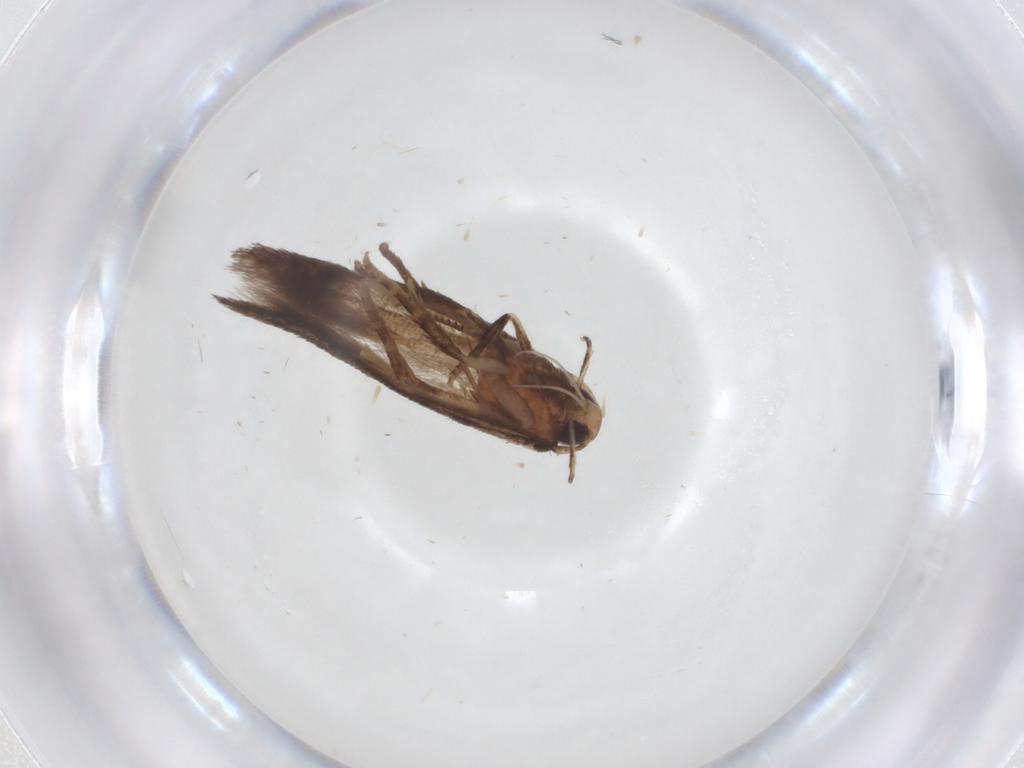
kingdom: Animalia
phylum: Arthropoda
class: Insecta
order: Lepidoptera
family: Cosmopterigidae
